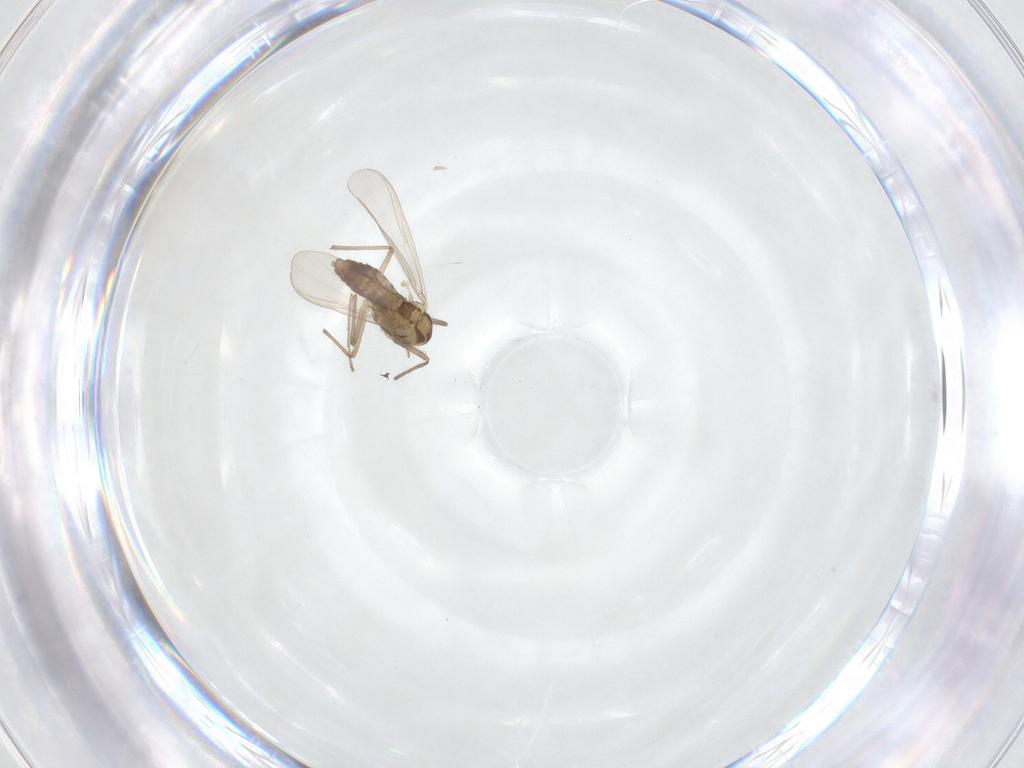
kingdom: Animalia
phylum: Arthropoda
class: Insecta
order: Diptera
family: Chironomidae
